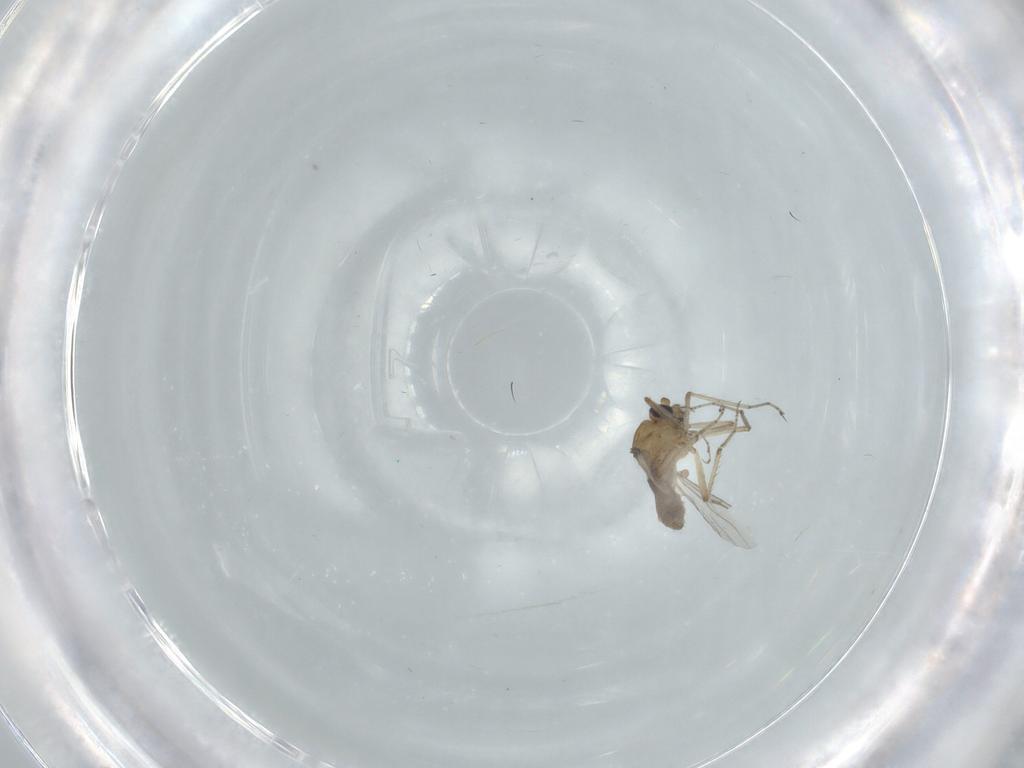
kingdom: Animalia
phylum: Arthropoda
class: Insecta
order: Diptera
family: Ceratopogonidae
